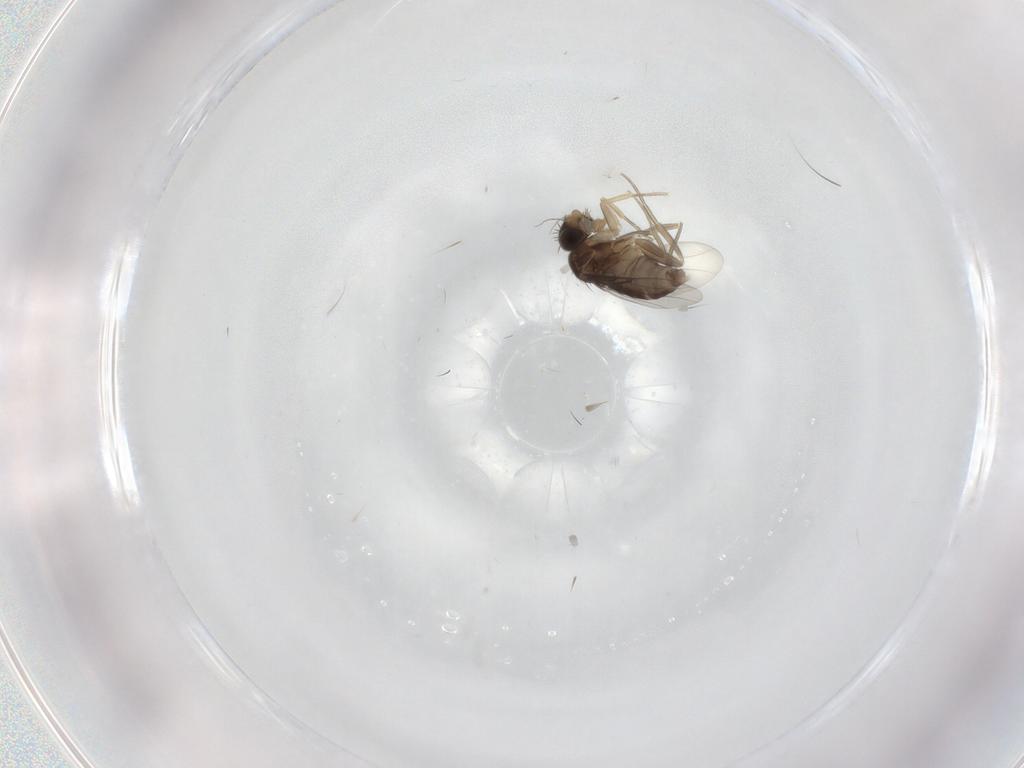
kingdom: Animalia
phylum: Arthropoda
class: Insecta
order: Diptera
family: Phoridae
